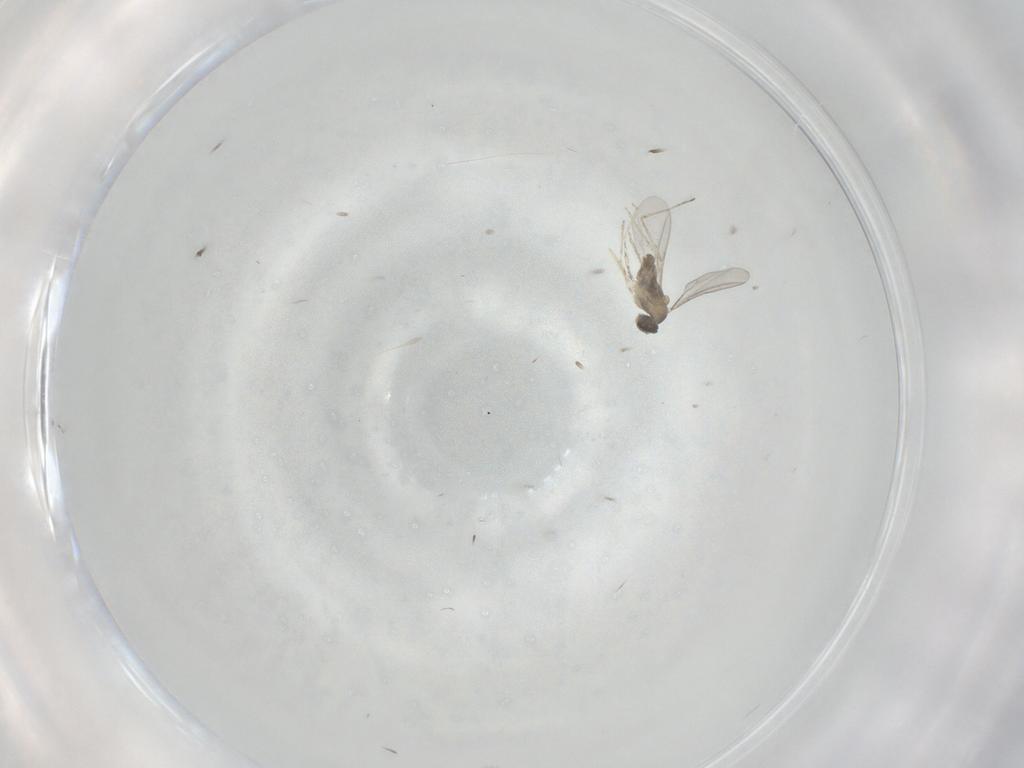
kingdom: Animalia
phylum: Arthropoda
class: Insecta
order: Diptera
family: Cecidomyiidae
